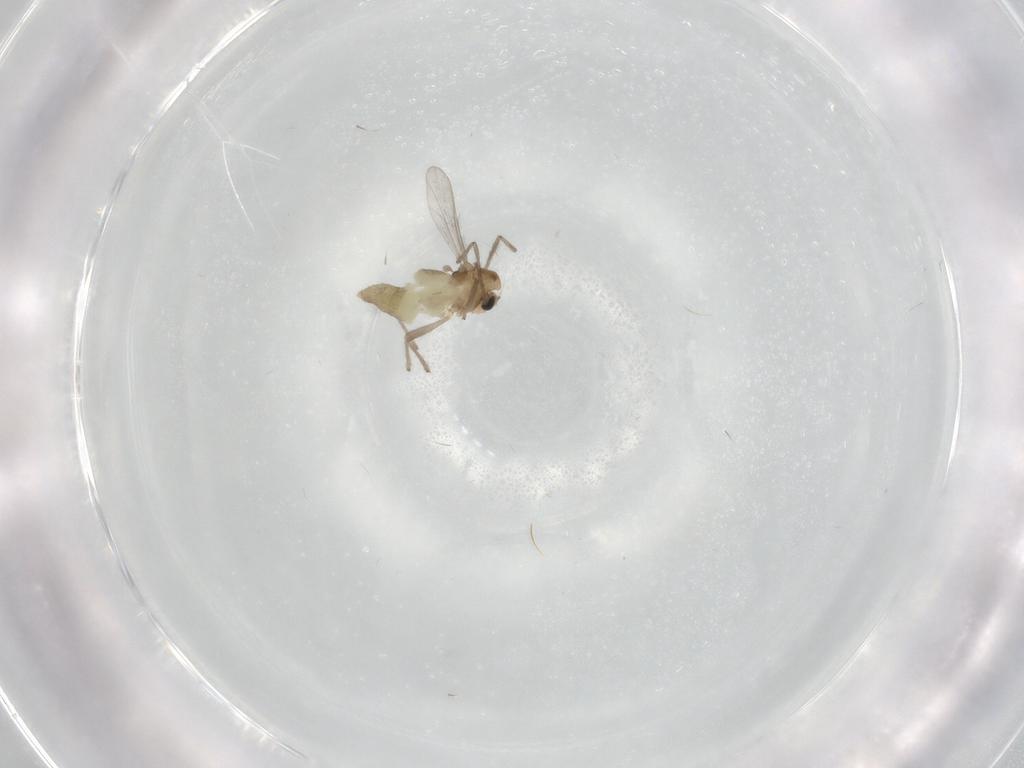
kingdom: Animalia
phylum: Arthropoda
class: Insecta
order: Diptera
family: Chironomidae
